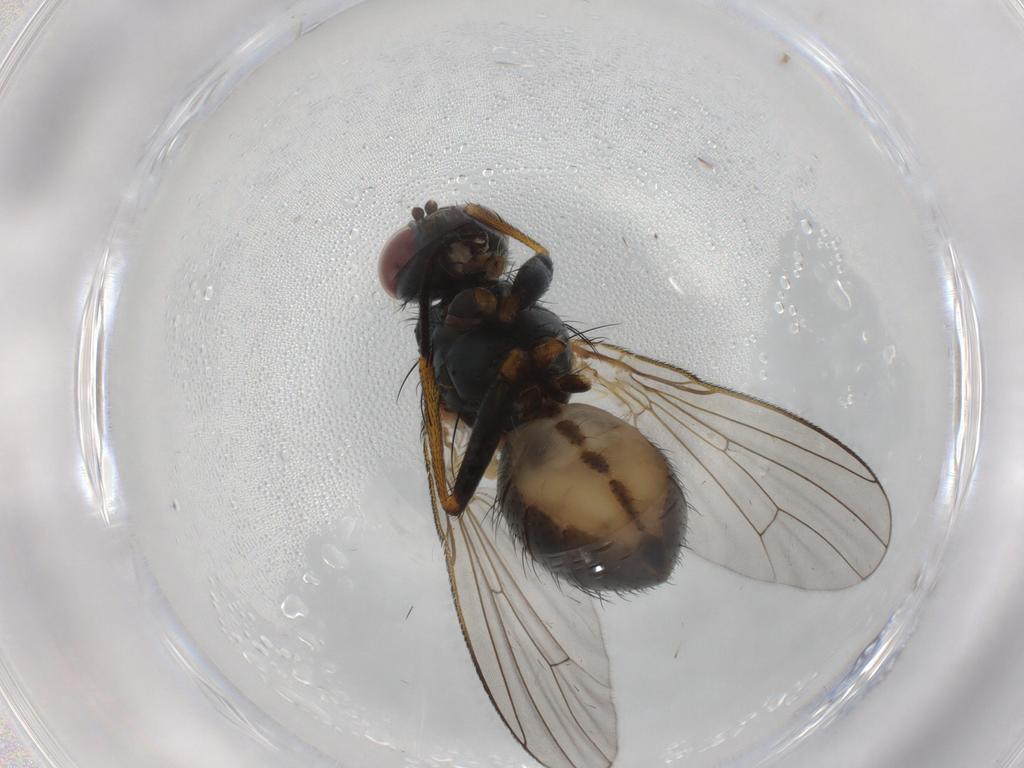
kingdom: Animalia
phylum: Arthropoda
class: Insecta
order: Diptera
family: Muscidae
